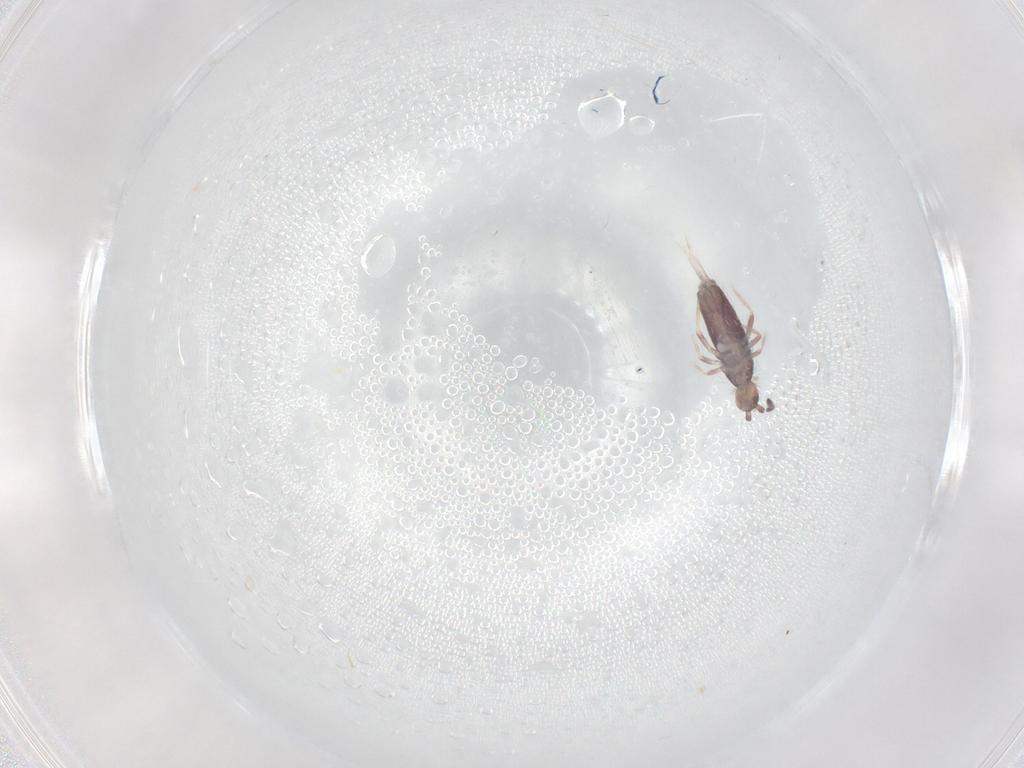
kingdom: Animalia
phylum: Arthropoda
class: Collembola
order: Entomobryomorpha
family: Entomobryidae
